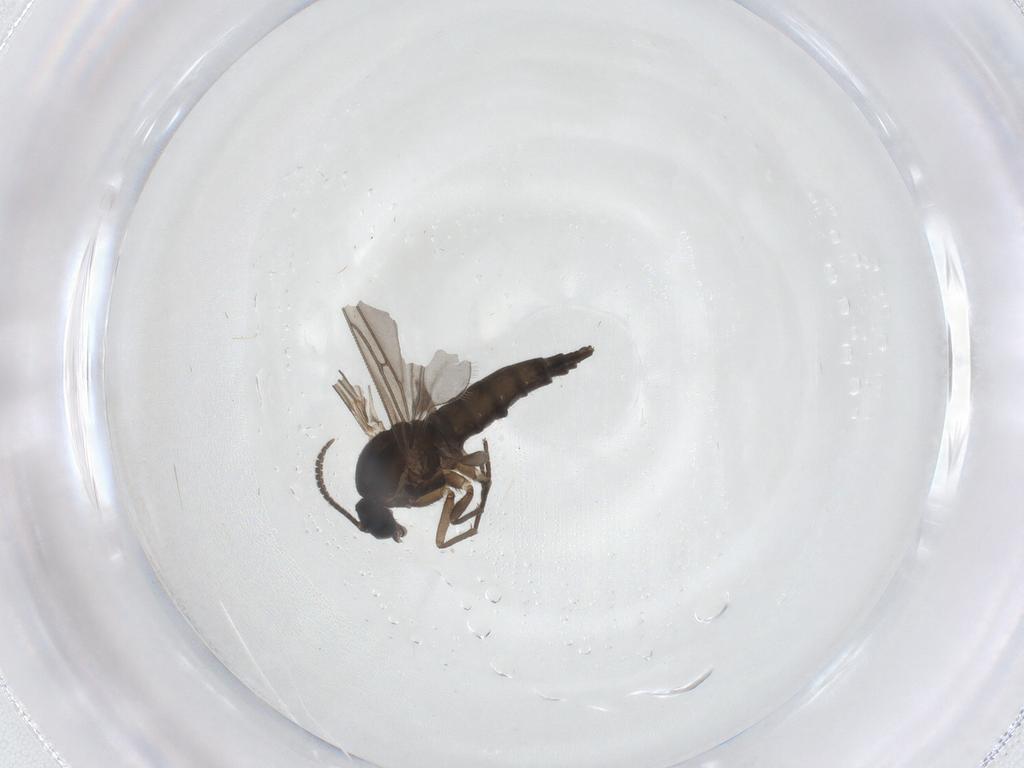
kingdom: Animalia
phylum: Arthropoda
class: Insecta
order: Diptera
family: Sciaridae
